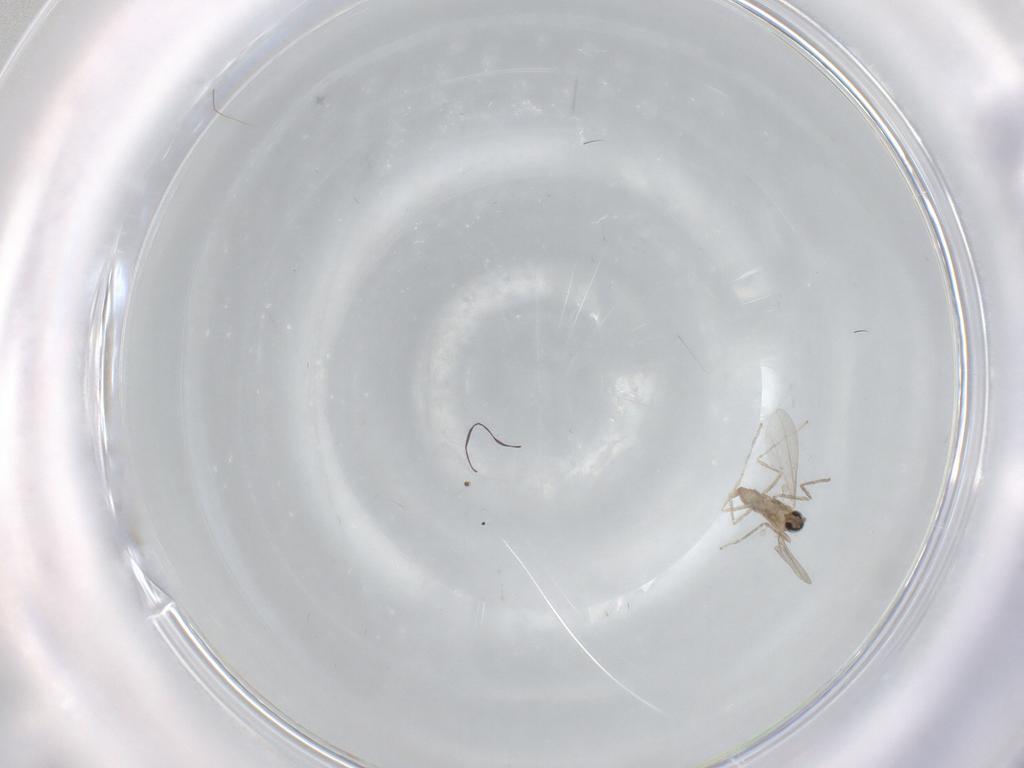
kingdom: Animalia
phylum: Arthropoda
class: Insecta
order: Diptera
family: Cecidomyiidae
